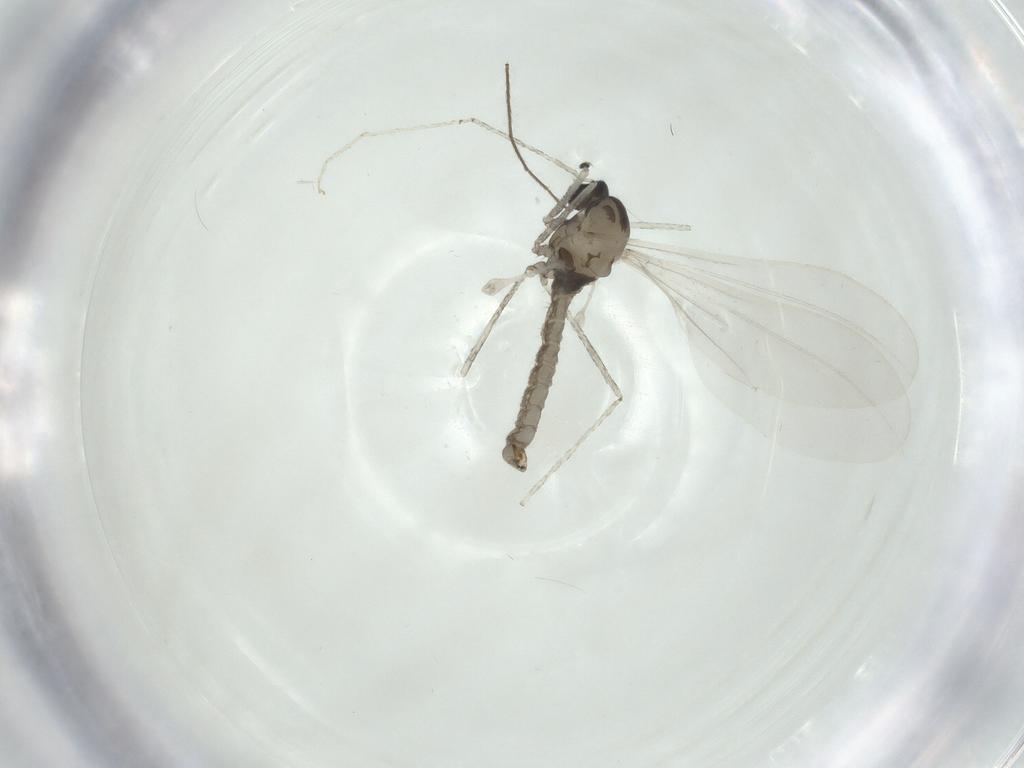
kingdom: Animalia
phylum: Arthropoda
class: Insecta
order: Diptera
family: Cecidomyiidae
